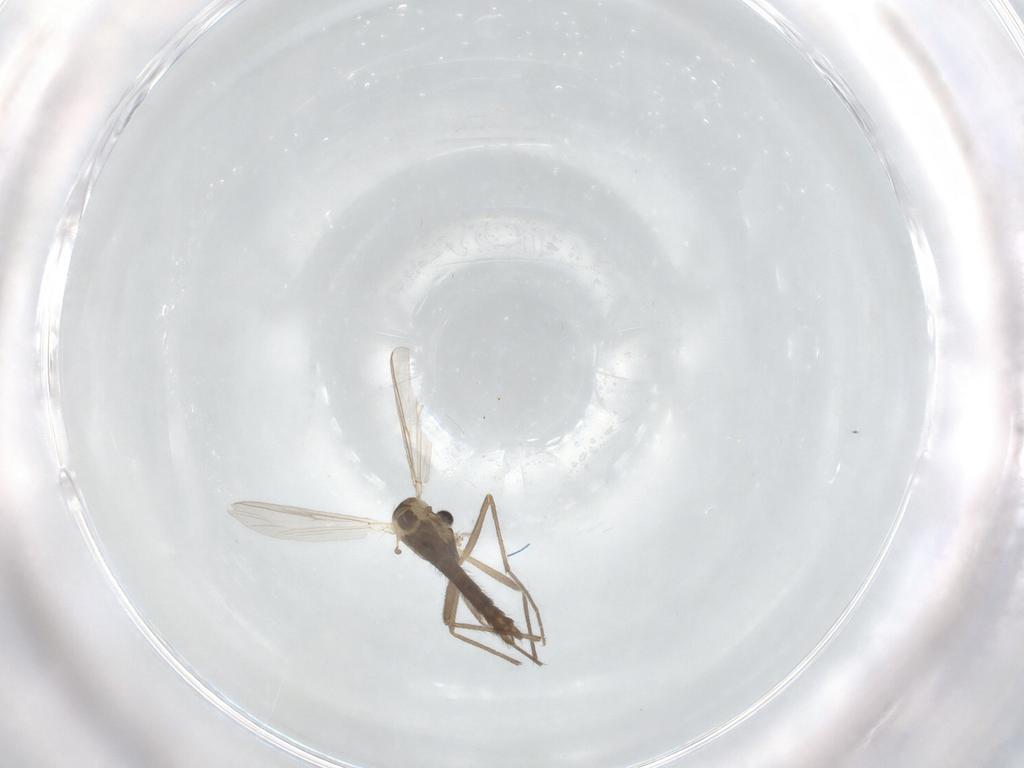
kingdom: Animalia
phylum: Arthropoda
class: Insecta
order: Diptera
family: Chironomidae
